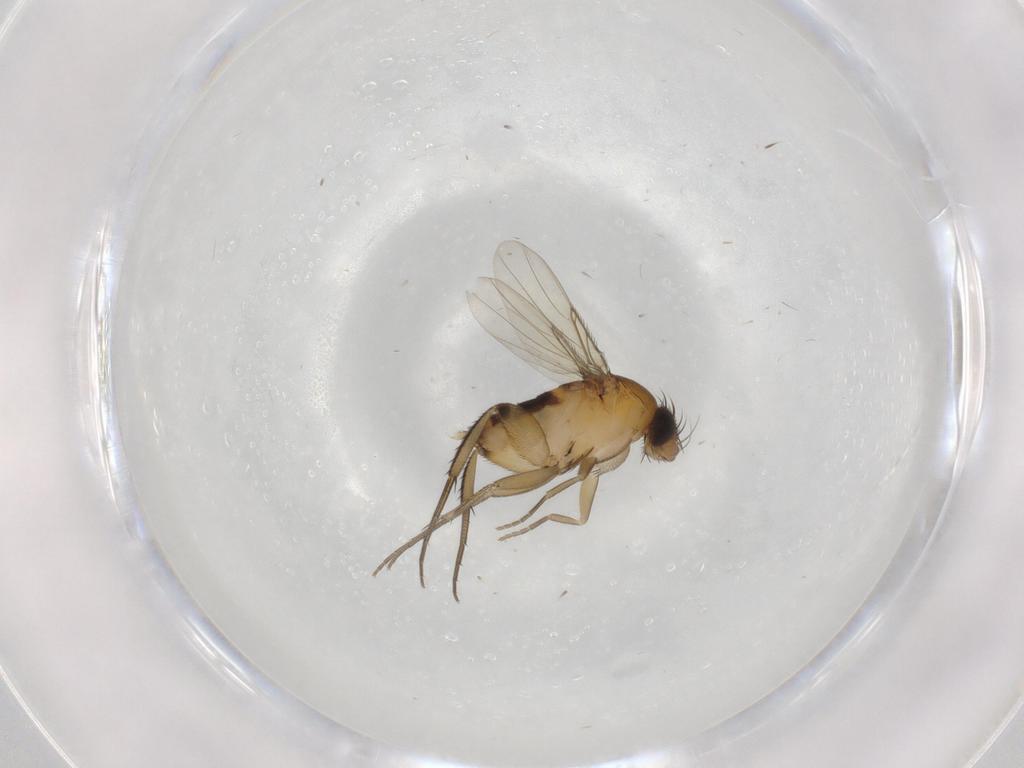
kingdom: Animalia
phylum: Arthropoda
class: Insecta
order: Diptera
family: Phoridae
